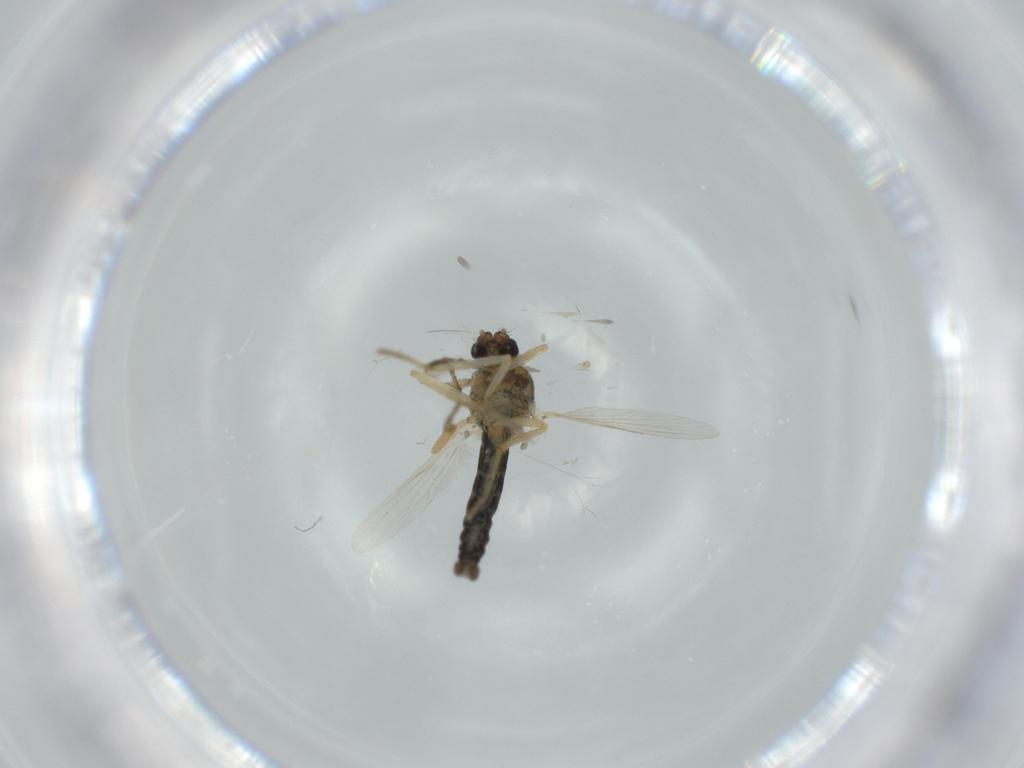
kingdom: Animalia
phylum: Arthropoda
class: Insecta
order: Diptera
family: Ceratopogonidae
